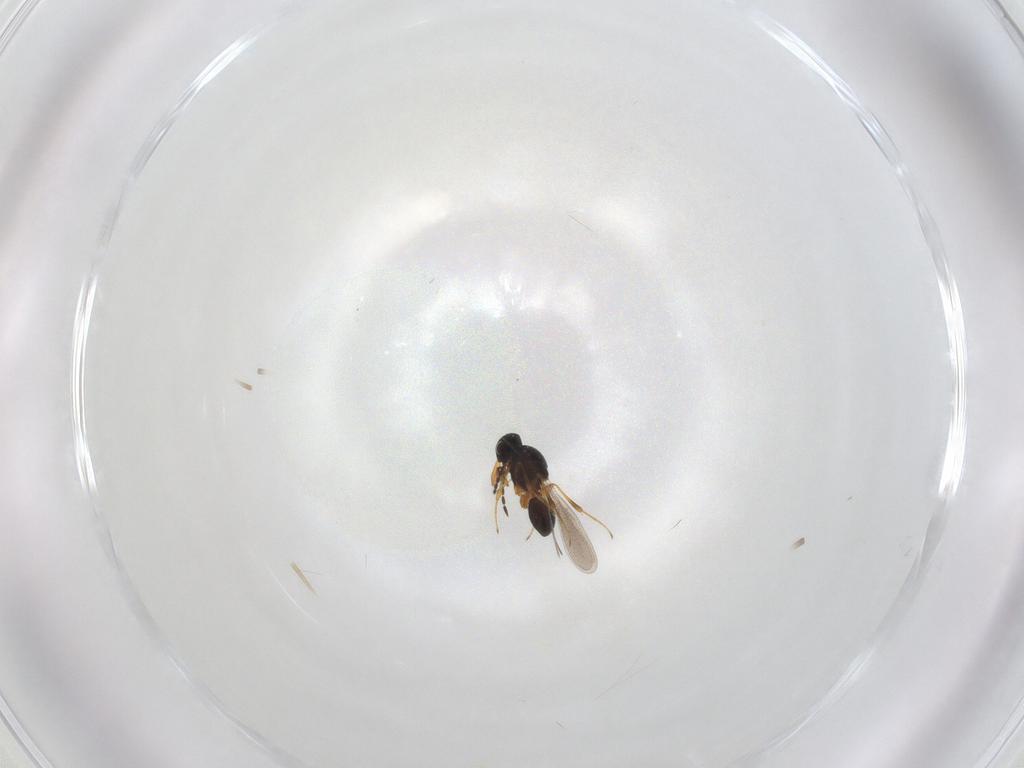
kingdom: Animalia
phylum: Arthropoda
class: Insecta
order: Hymenoptera
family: Platygastridae
